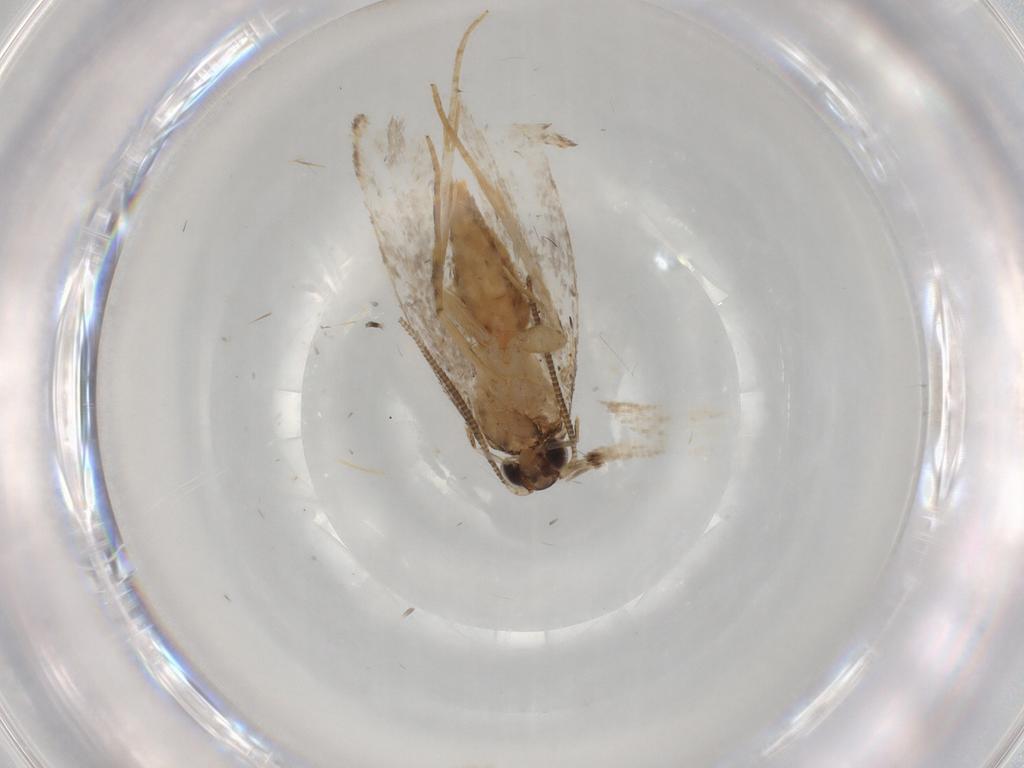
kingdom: Animalia
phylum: Arthropoda
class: Insecta
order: Lepidoptera
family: Crambidae
